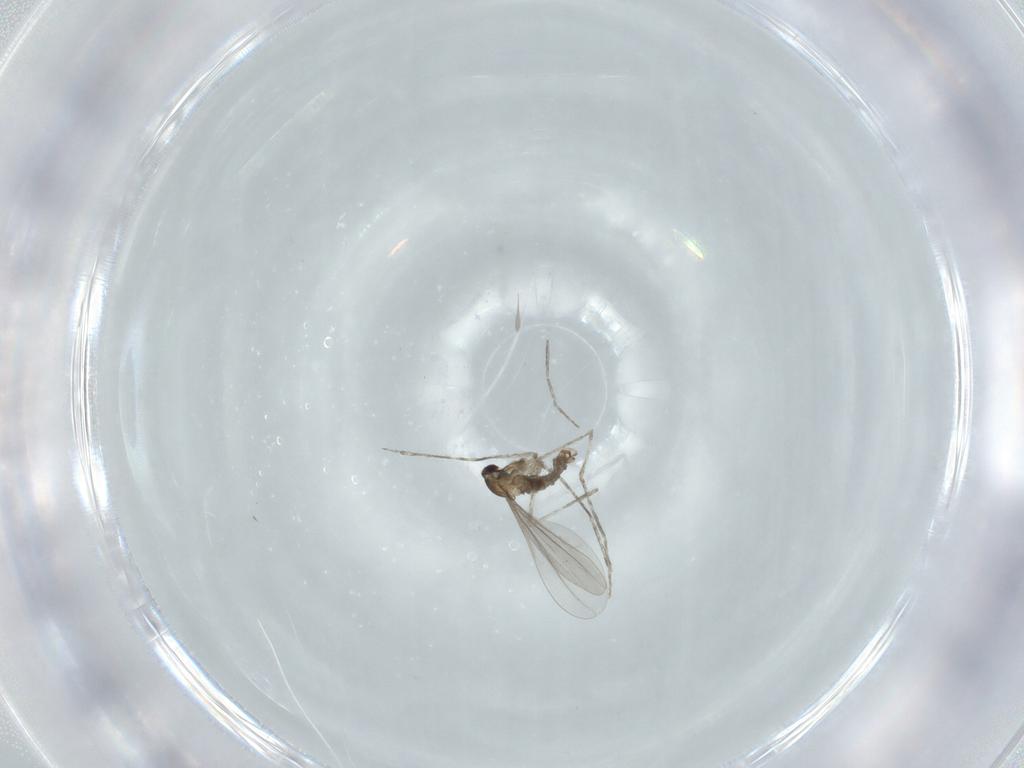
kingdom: Animalia
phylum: Arthropoda
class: Insecta
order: Diptera
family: Cecidomyiidae
